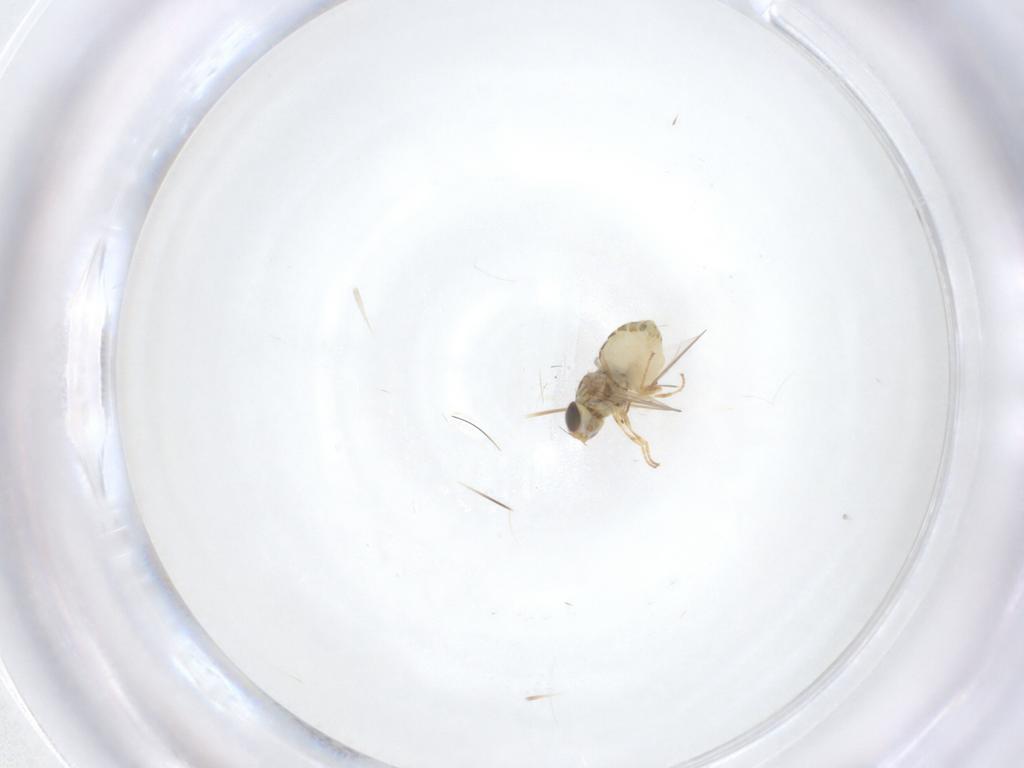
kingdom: Animalia
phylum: Arthropoda
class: Insecta
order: Diptera
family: Chyromyidae
